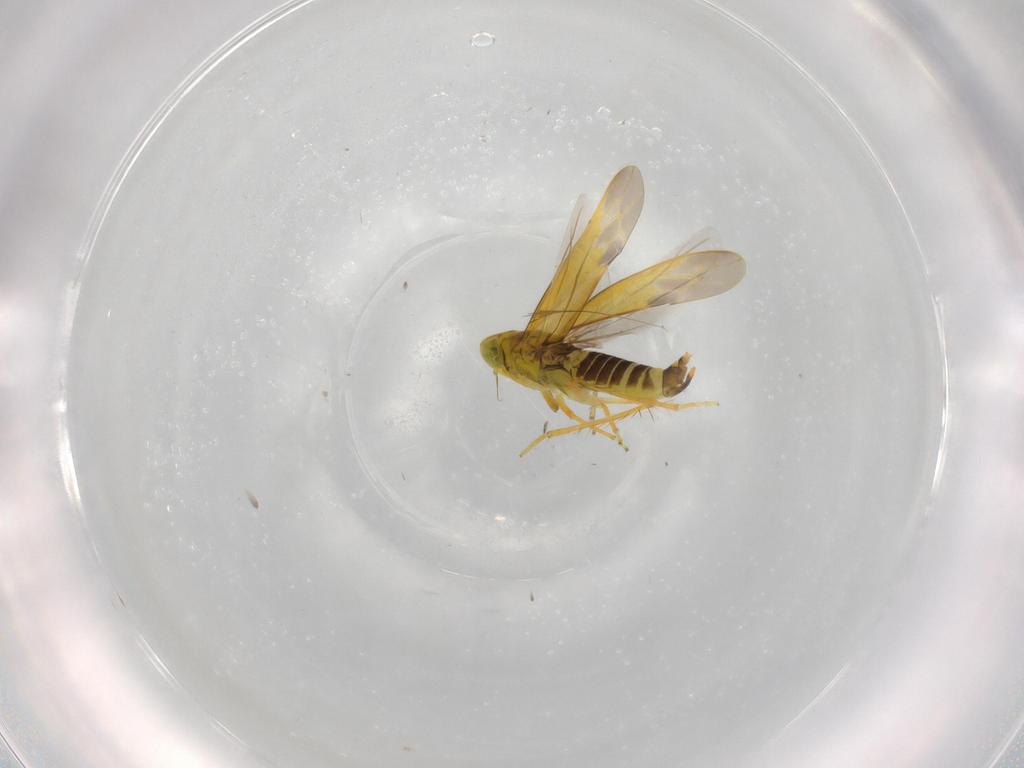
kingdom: Animalia
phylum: Arthropoda
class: Insecta
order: Hemiptera
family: Cicadellidae
